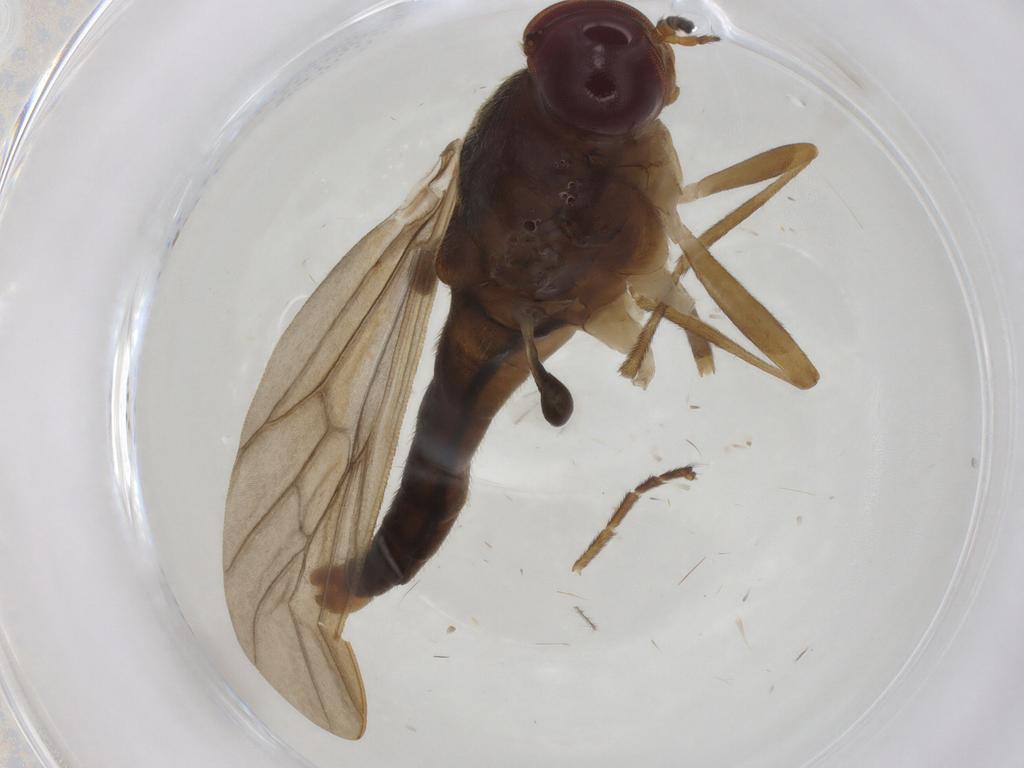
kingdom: Animalia
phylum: Arthropoda
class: Insecta
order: Diptera
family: Stratiomyidae
